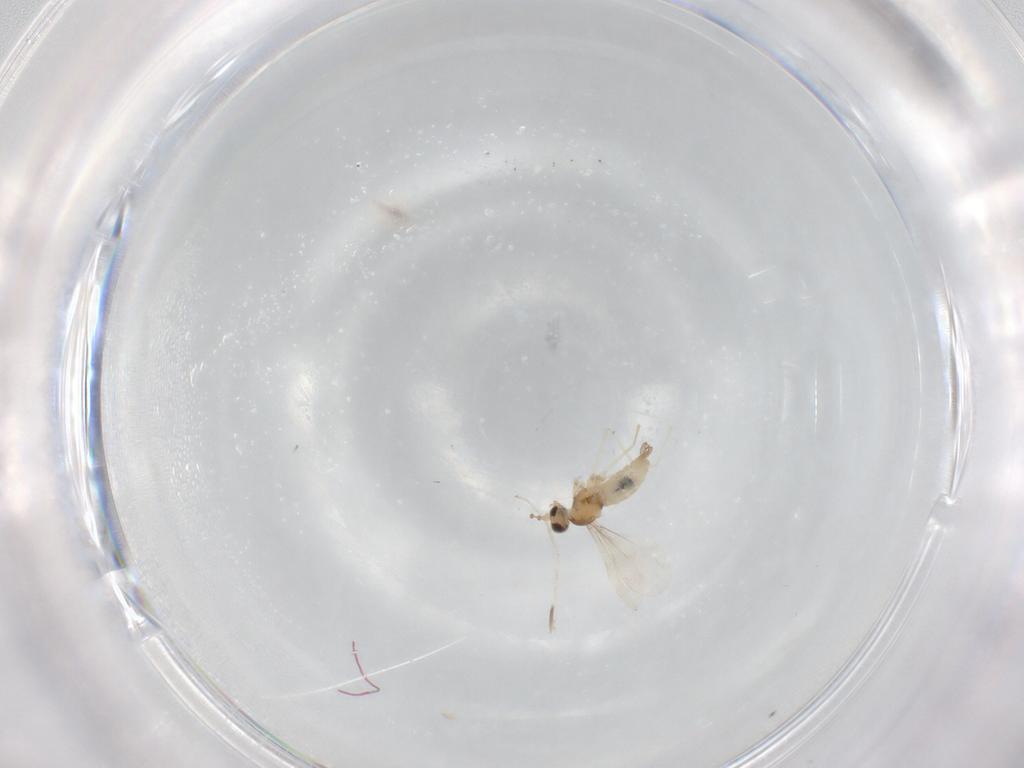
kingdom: Animalia
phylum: Arthropoda
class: Insecta
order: Diptera
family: Cecidomyiidae
